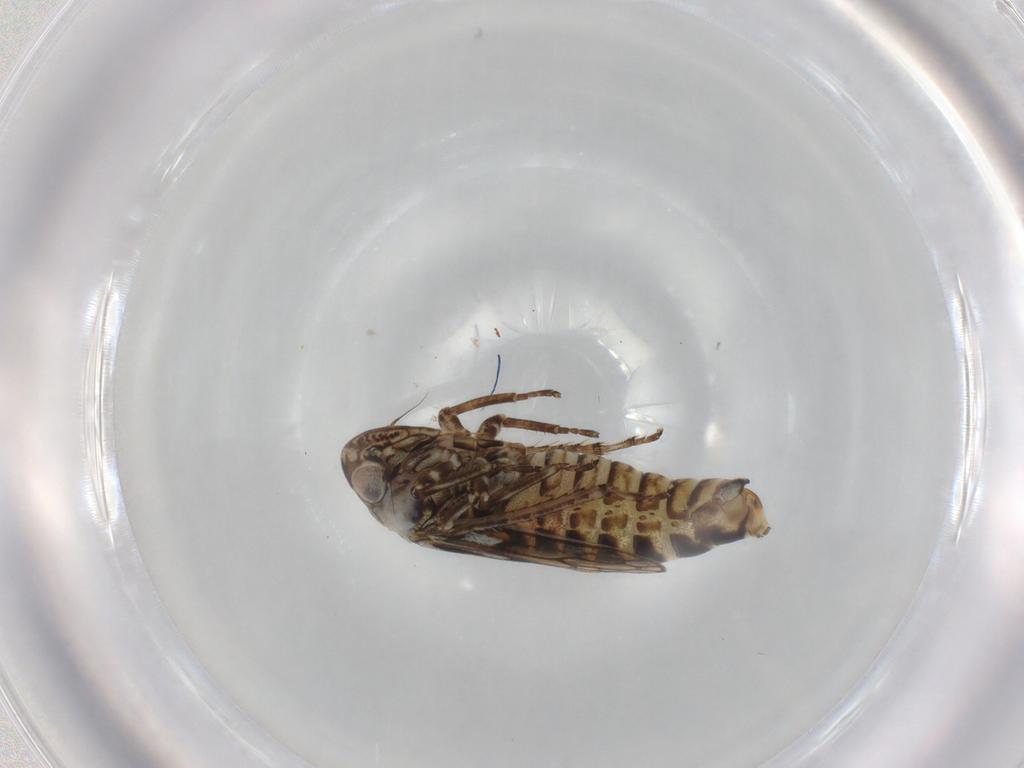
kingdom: Animalia
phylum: Arthropoda
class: Insecta
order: Hemiptera
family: Cicadellidae
